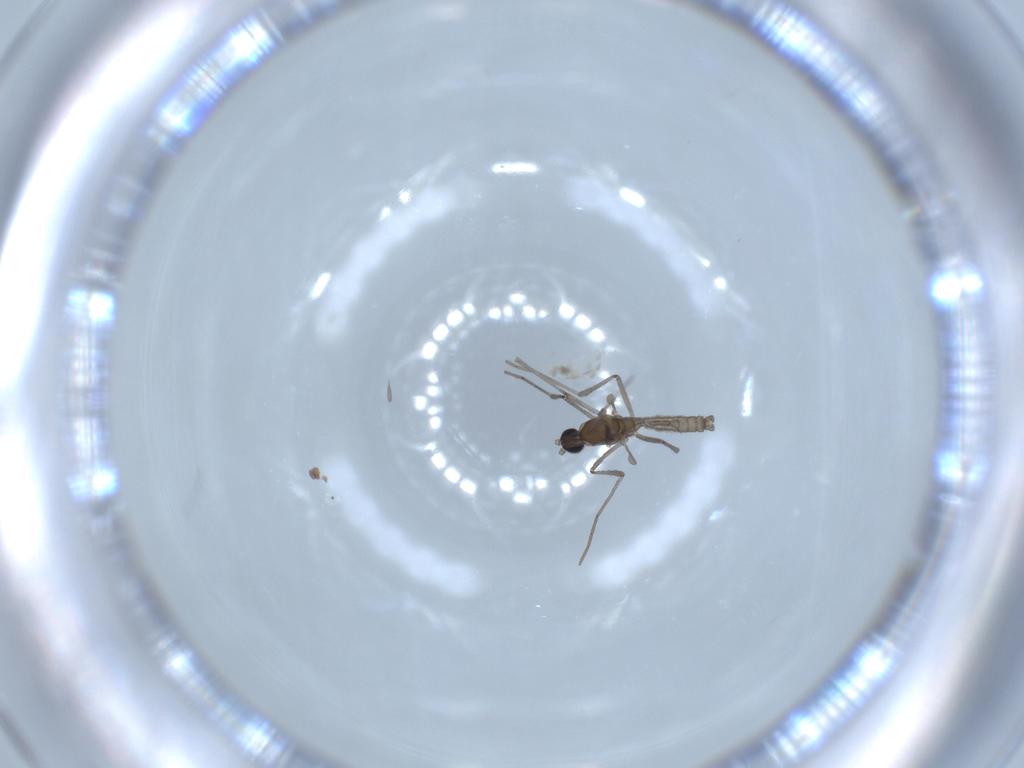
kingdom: Animalia
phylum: Arthropoda
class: Insecta
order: Diptera
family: Cecidomyiidae
